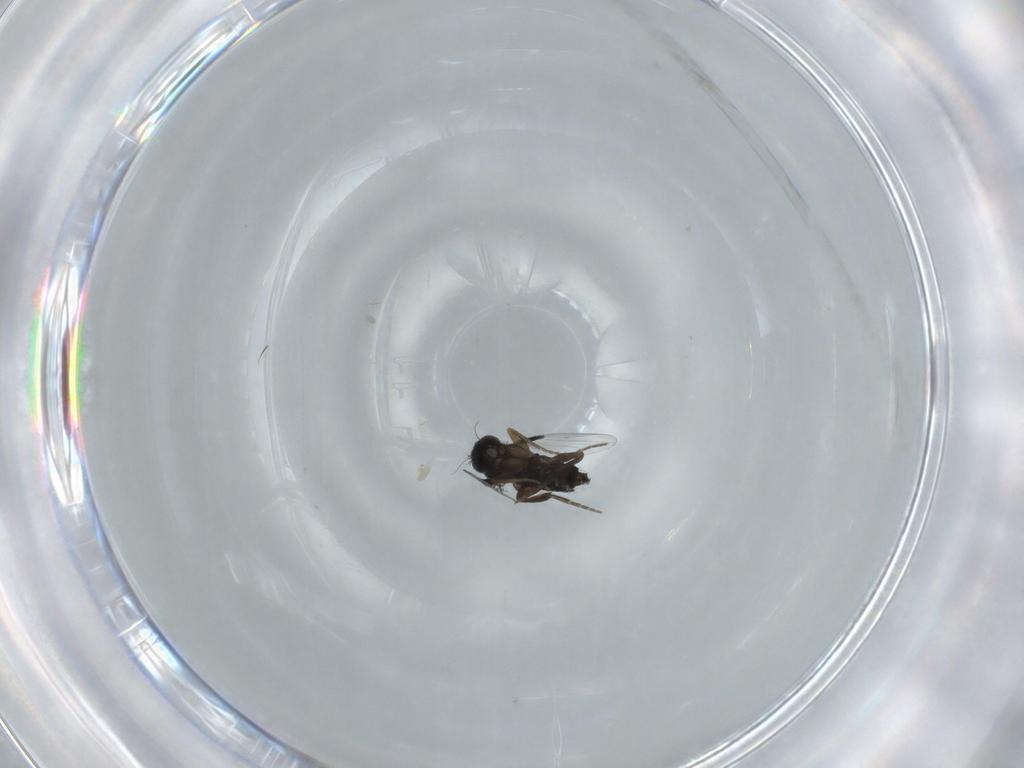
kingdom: Animalia
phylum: Arthropoda
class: Insecta
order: Diptera
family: Phoridae
